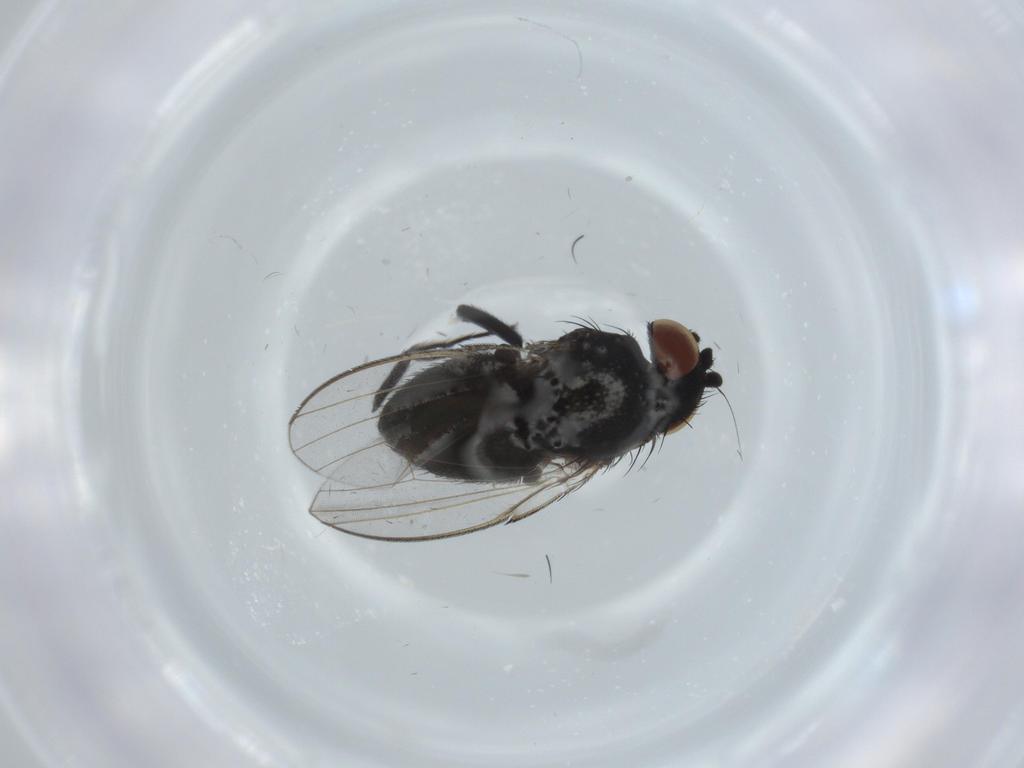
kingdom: Animalia
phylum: Arthropoda
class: Insecta
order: Diptera
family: Milichiidae
